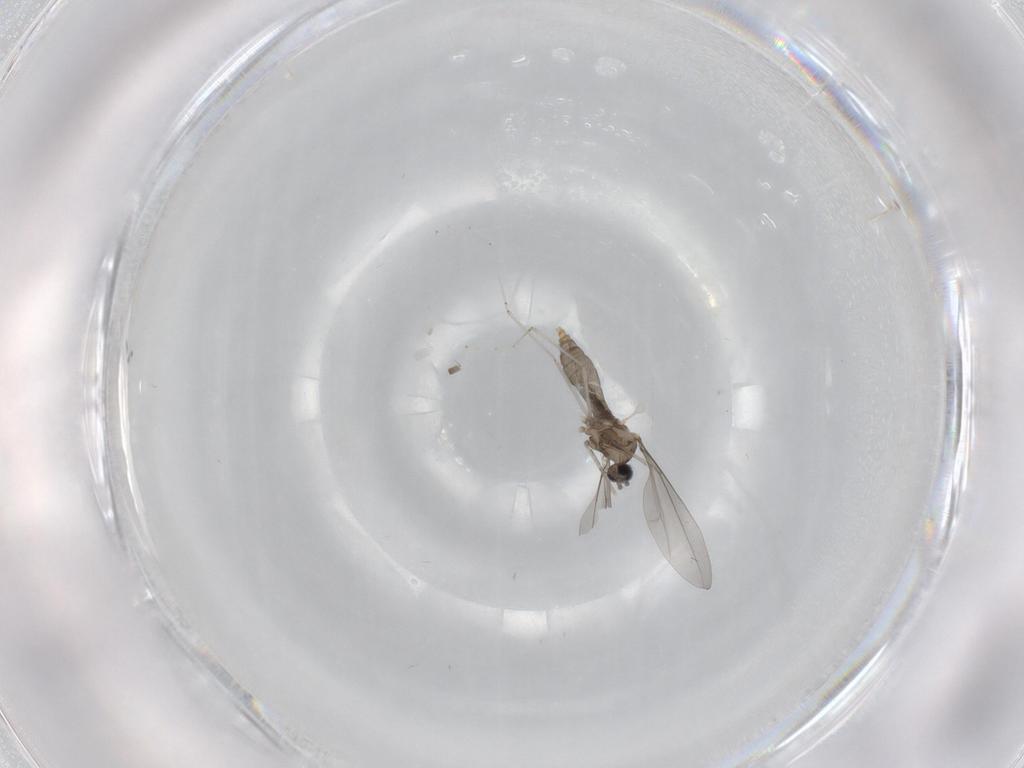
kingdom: Animalia
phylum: Arthropoda
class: Insecta
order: Diptera
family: Cecidomyiidae
